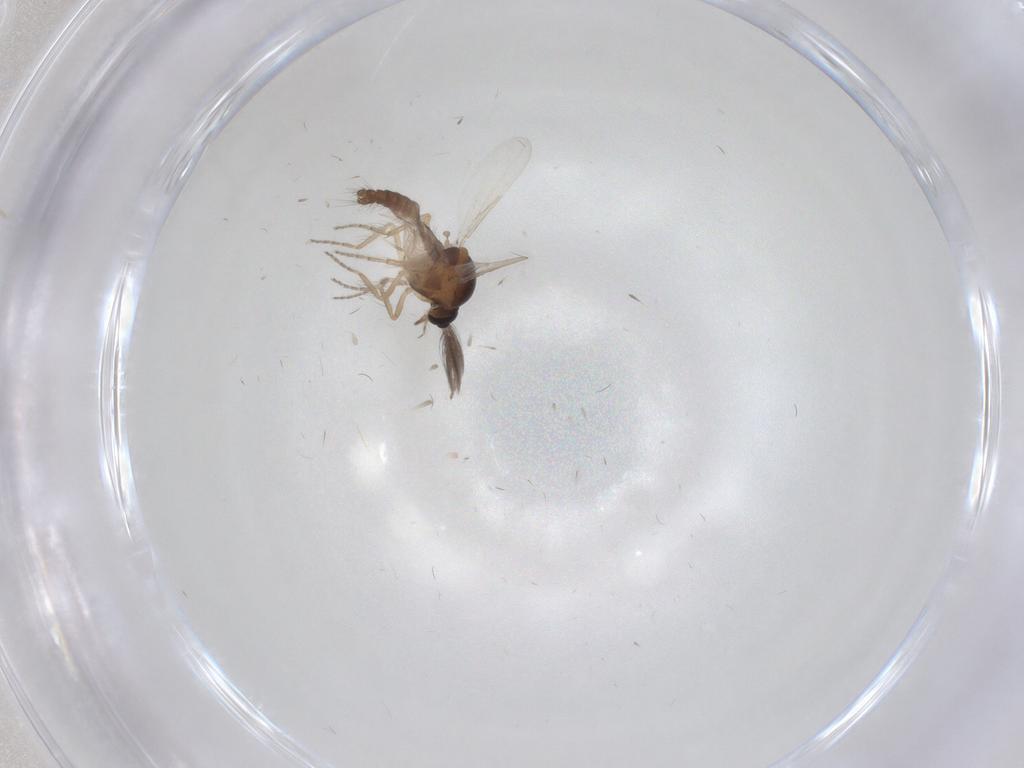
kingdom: Animalia
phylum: Arthropoda
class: Insecta
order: Diptera
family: Ceratopogonidae
